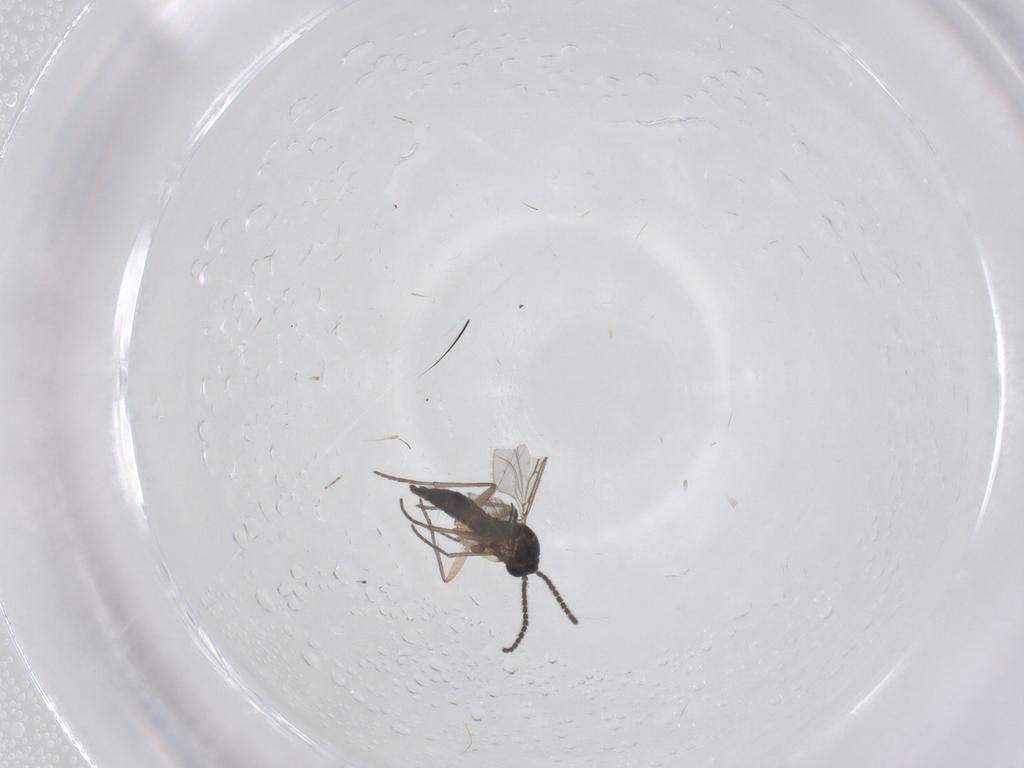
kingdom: Animalia
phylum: Arthropoda
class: Insecta
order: Diptera
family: Sciaridae
